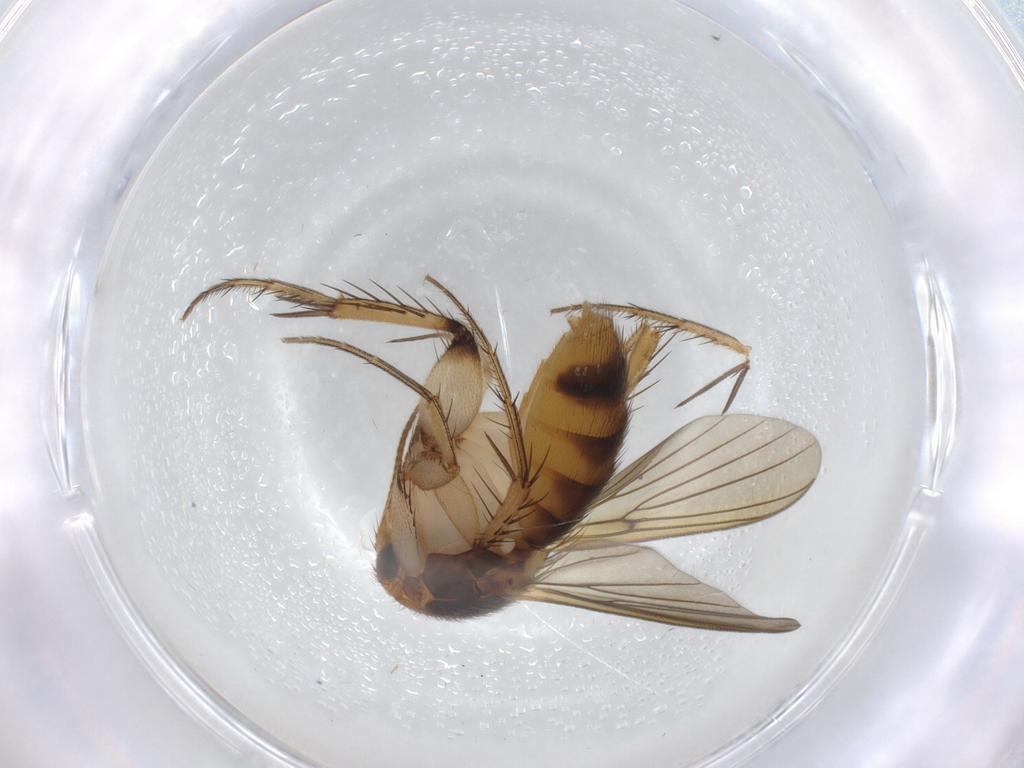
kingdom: Animalia
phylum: Arthropoda
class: Insecta
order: Diptera
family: Mycetophilidae
